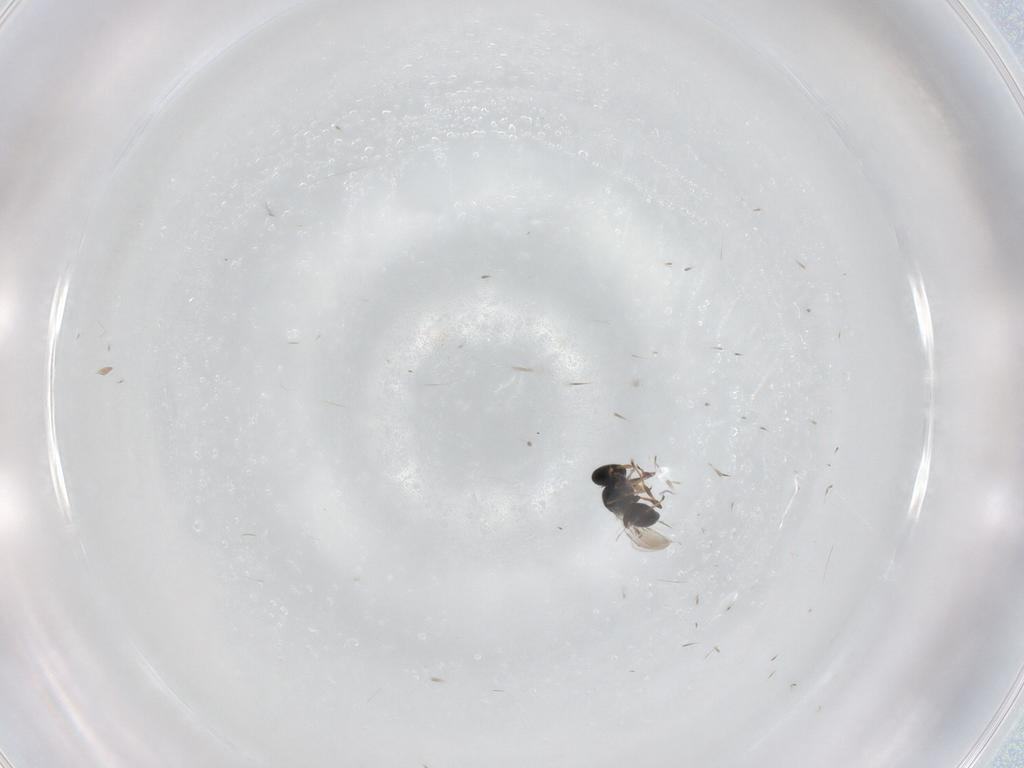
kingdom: Animalia
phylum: Arthropoda
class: Insecta
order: Hymenoptera
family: Platygastridae
